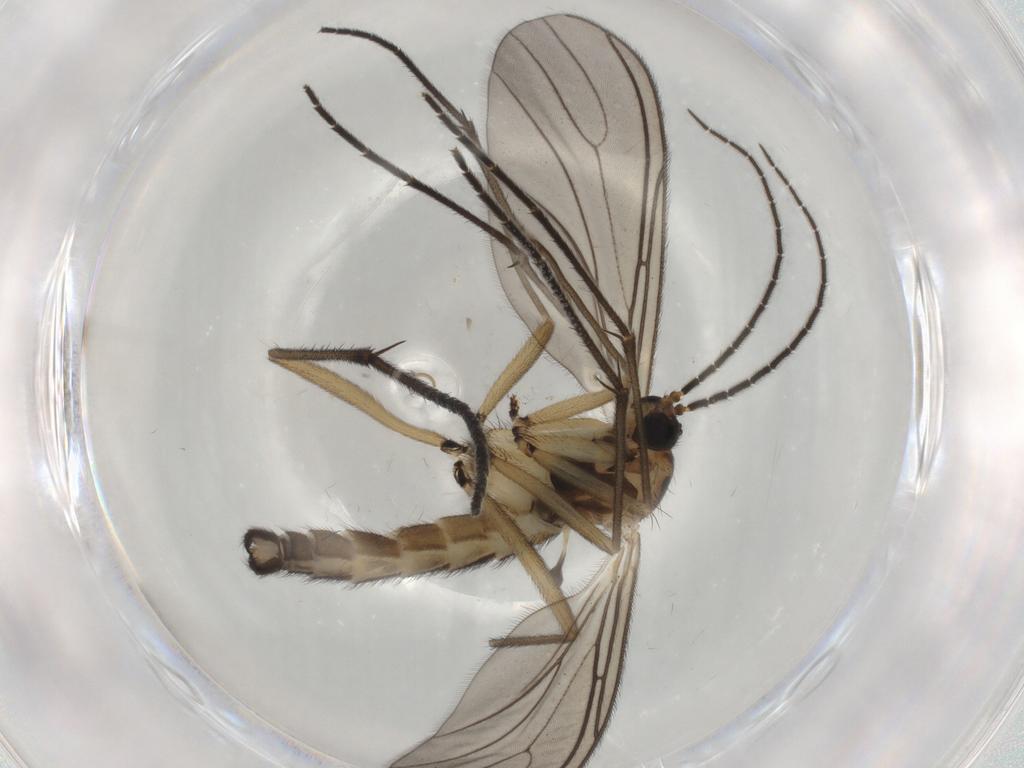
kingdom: Animalia
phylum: Arthropoda
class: Insecta
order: Diptera
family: Sciaridae
